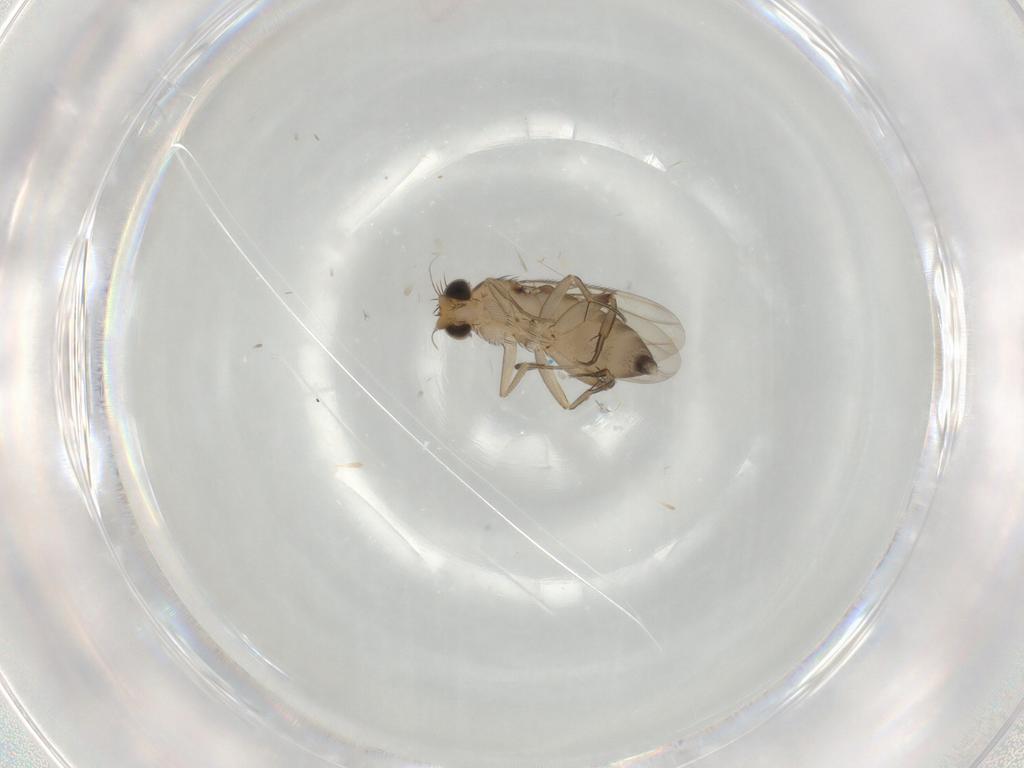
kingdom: Animalia
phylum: Arthropoda
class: Insecta
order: Diptera
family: Phoridae
